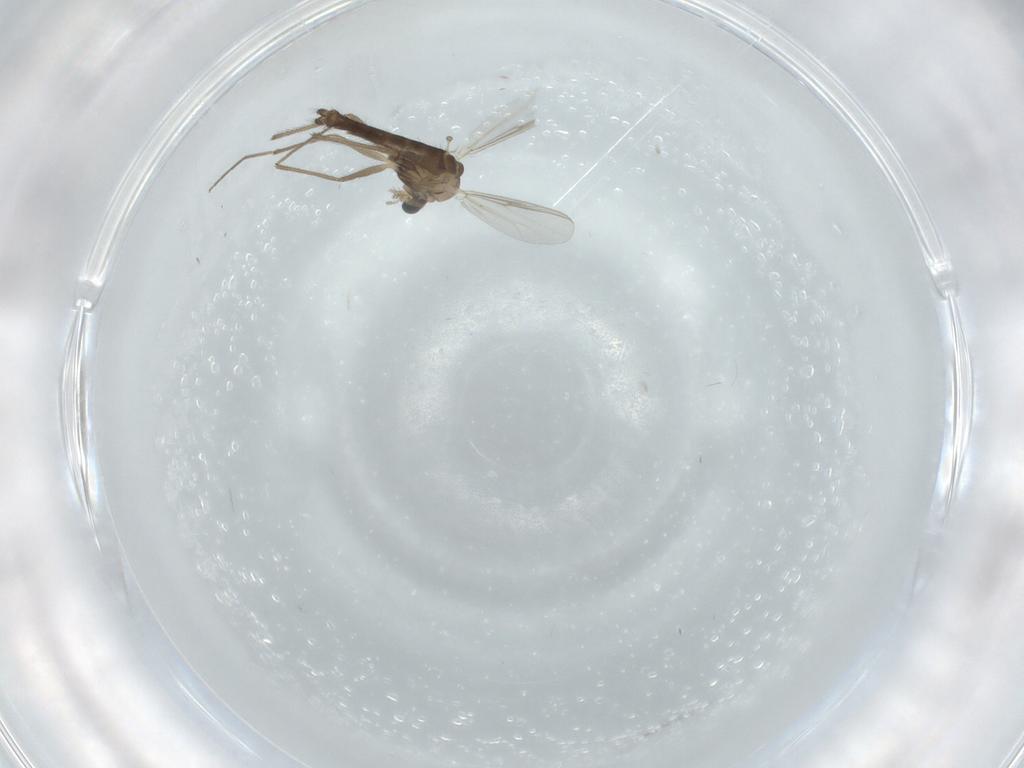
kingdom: Animalia
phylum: Arthropoda
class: Insecta
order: Diptera
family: Chironomidae
